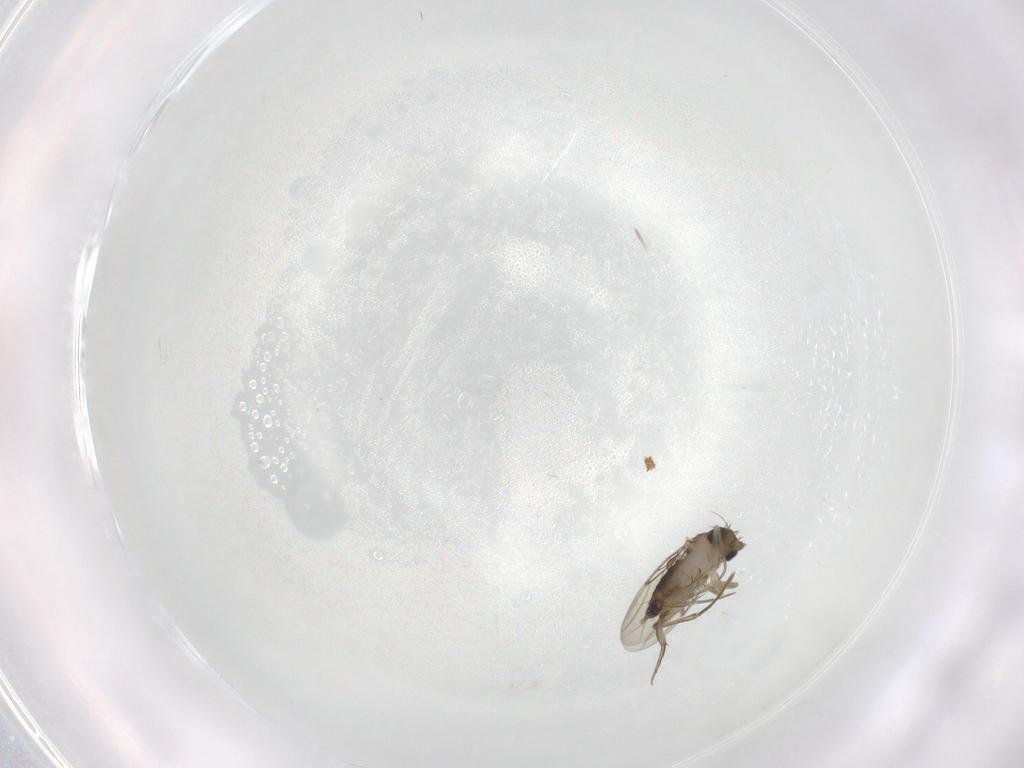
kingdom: Animalia
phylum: Arthropoda
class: Insecta
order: Diptera
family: Phoridae
